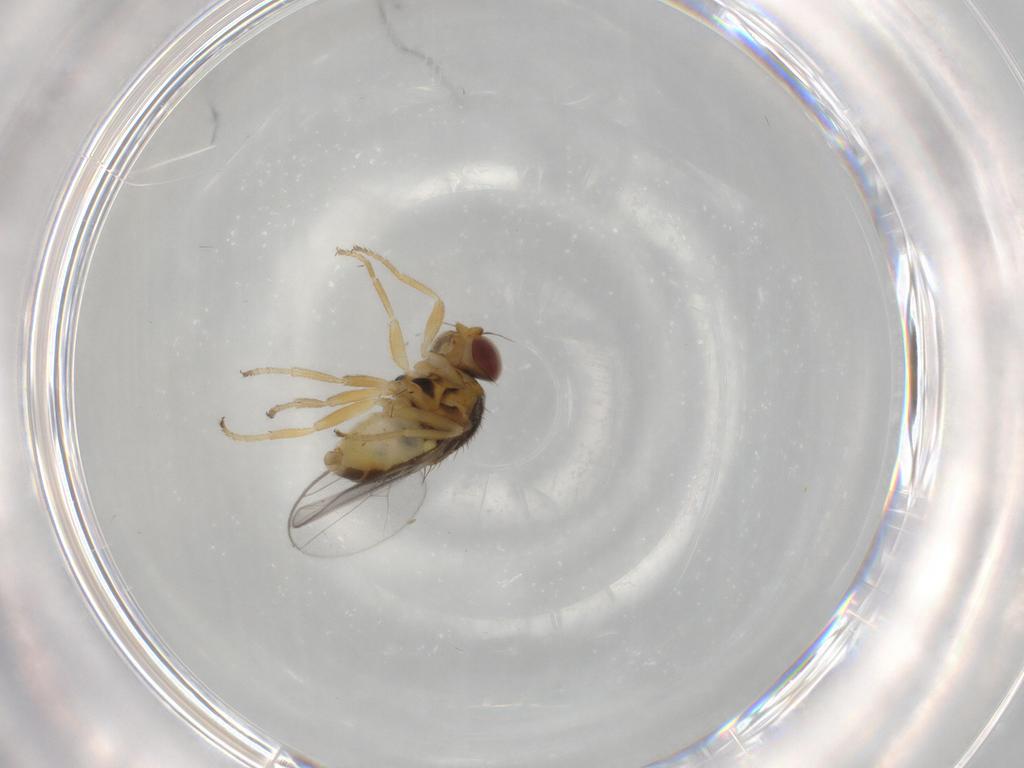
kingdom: Animalia
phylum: Arthropoda
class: Insecta
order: Diptera
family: Chloropidae
